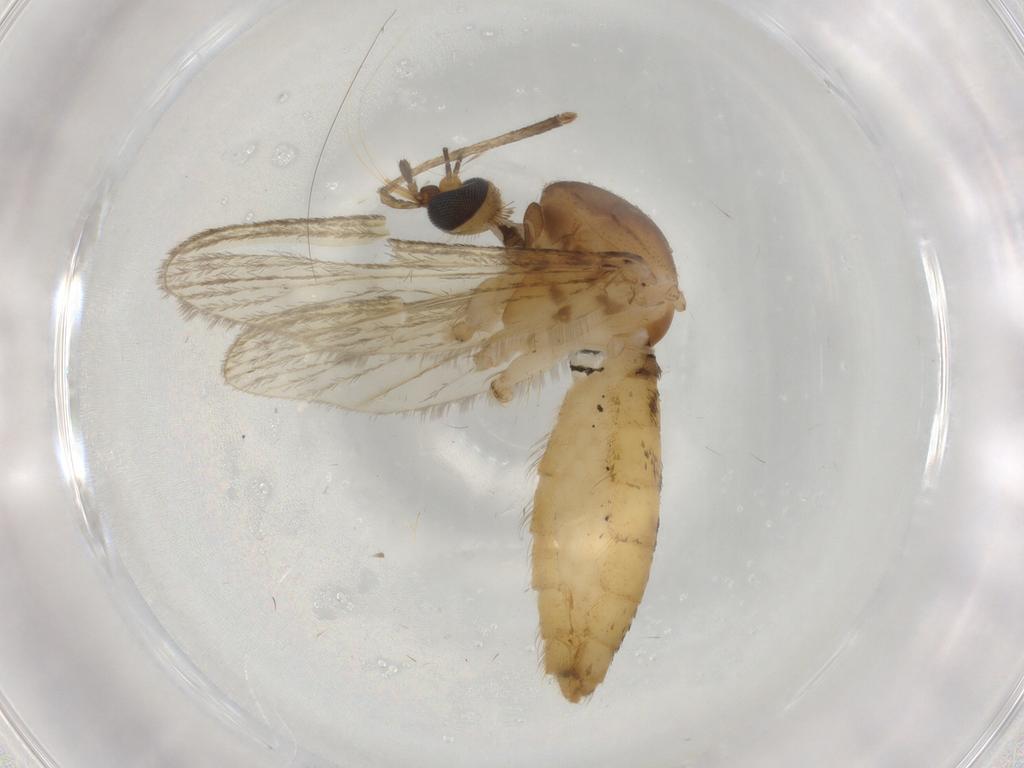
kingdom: Animalia
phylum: Arthropoda
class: Insecta
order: Diptera
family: Culicidae
